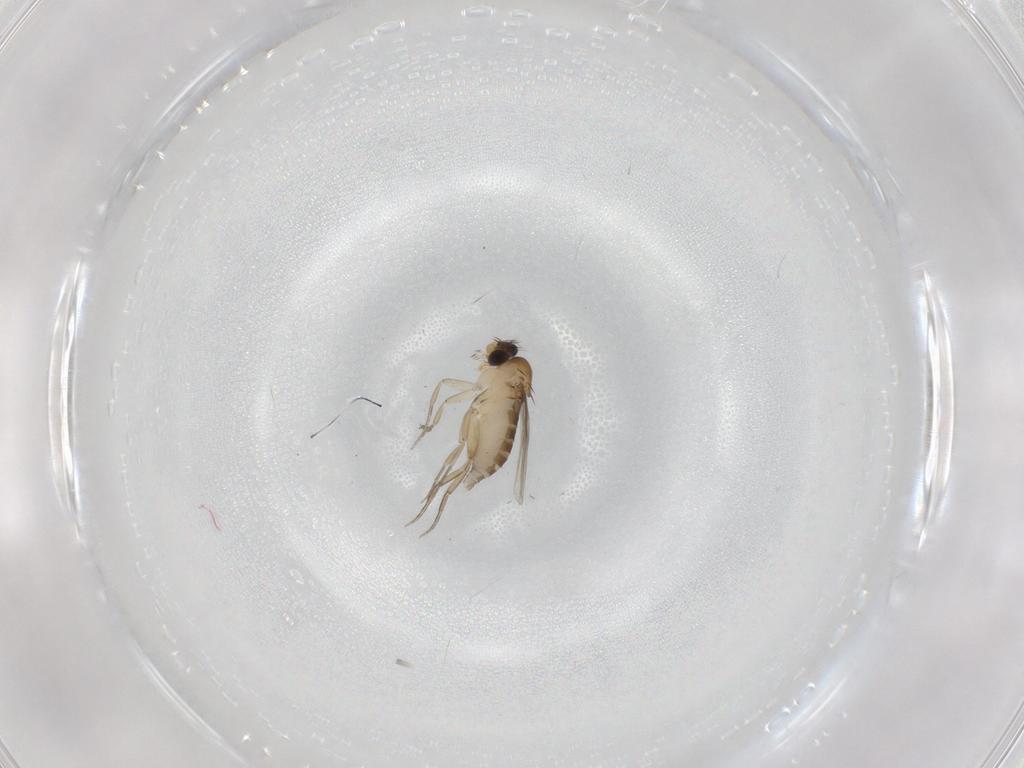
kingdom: Animalia
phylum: Arthropoda
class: Insecta
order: Diptera
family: Phoridae
